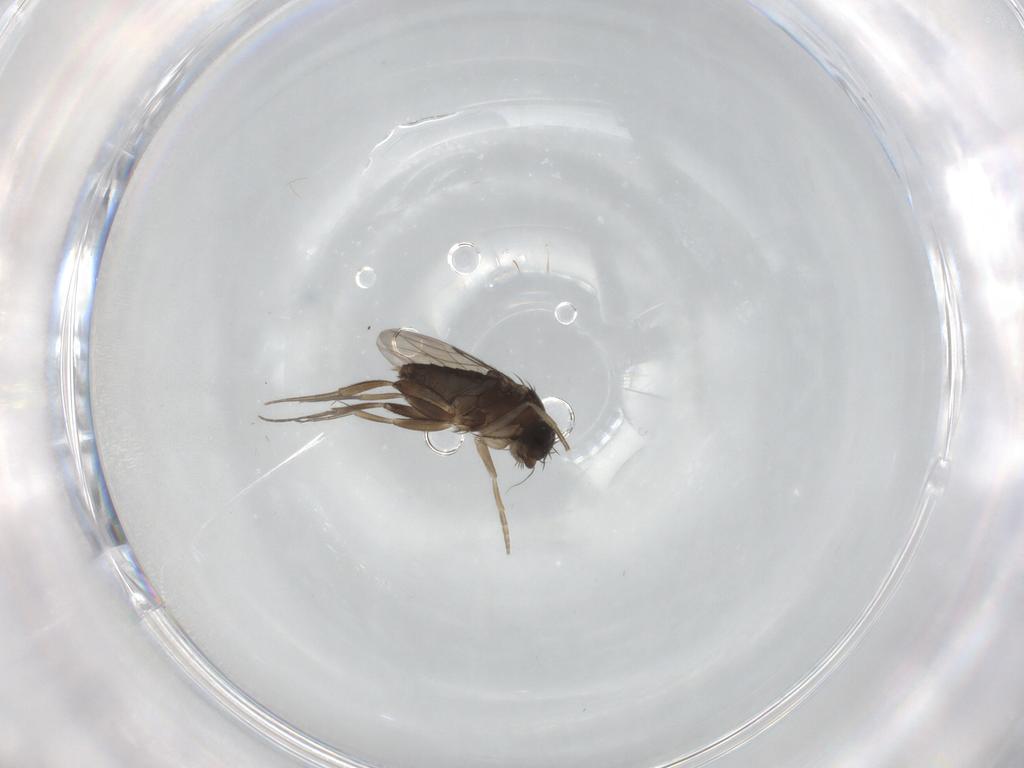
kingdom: Animalia
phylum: Arthropoda
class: Insecta
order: Diptera
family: Phoridae
